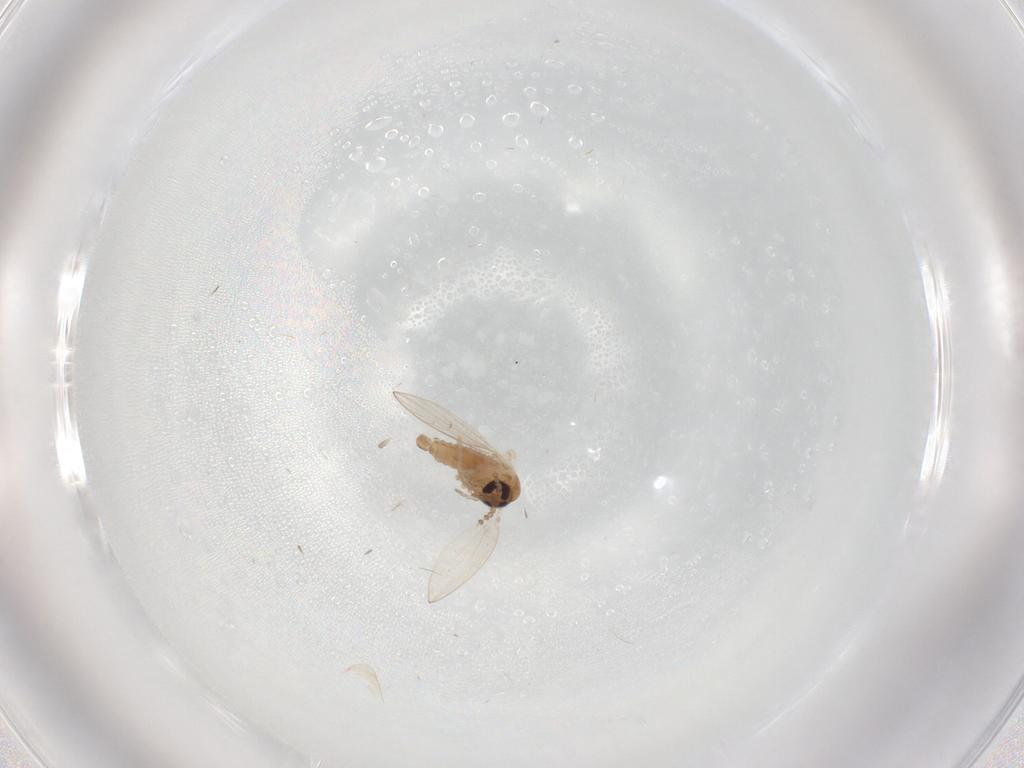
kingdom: Animalia
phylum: Arthropoda
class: Insecta
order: Diptera
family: Psychodidae
